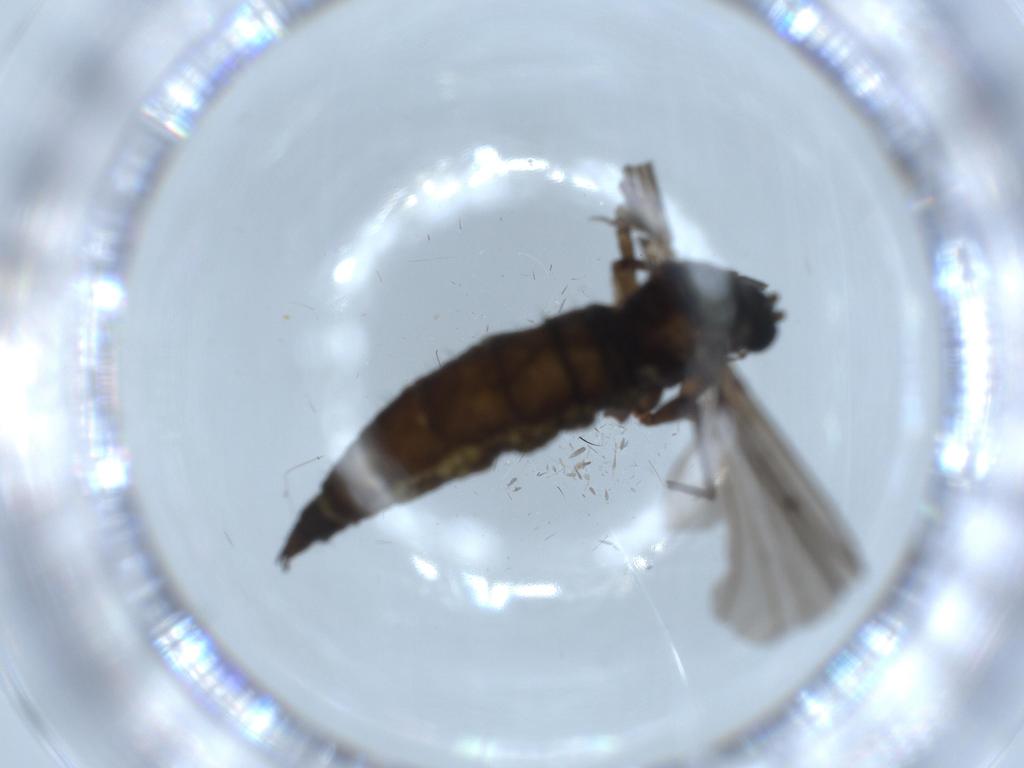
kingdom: Animalia
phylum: Arthropoda
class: Insecta
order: Diptera
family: Sciaridae
